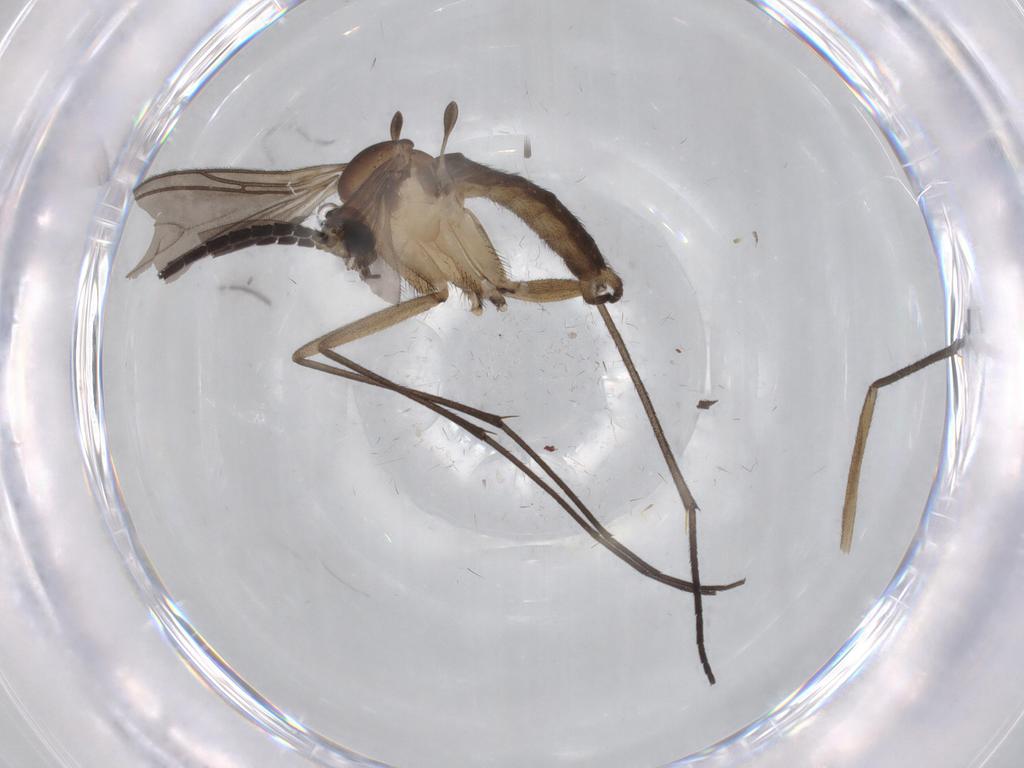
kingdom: Animalia
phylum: Arthropoda
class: Insecta
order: Diptera
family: Sciaridae
